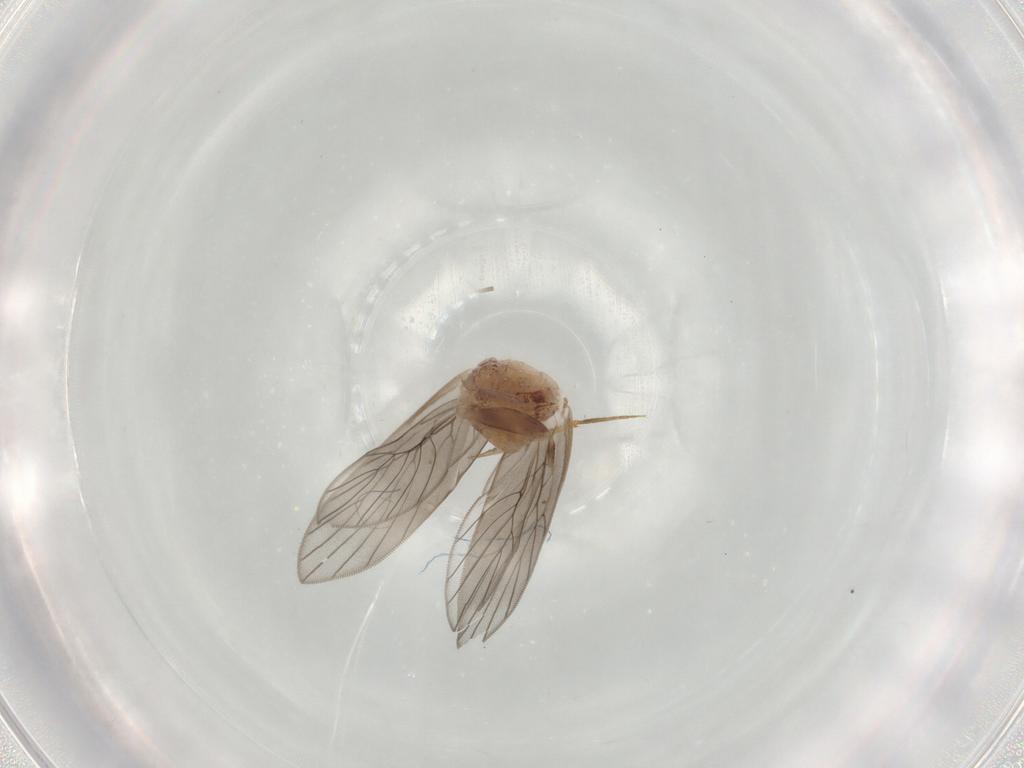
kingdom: Animalia
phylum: Arthropoda
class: Insecta
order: Psocodea
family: Lepidopsocidae
